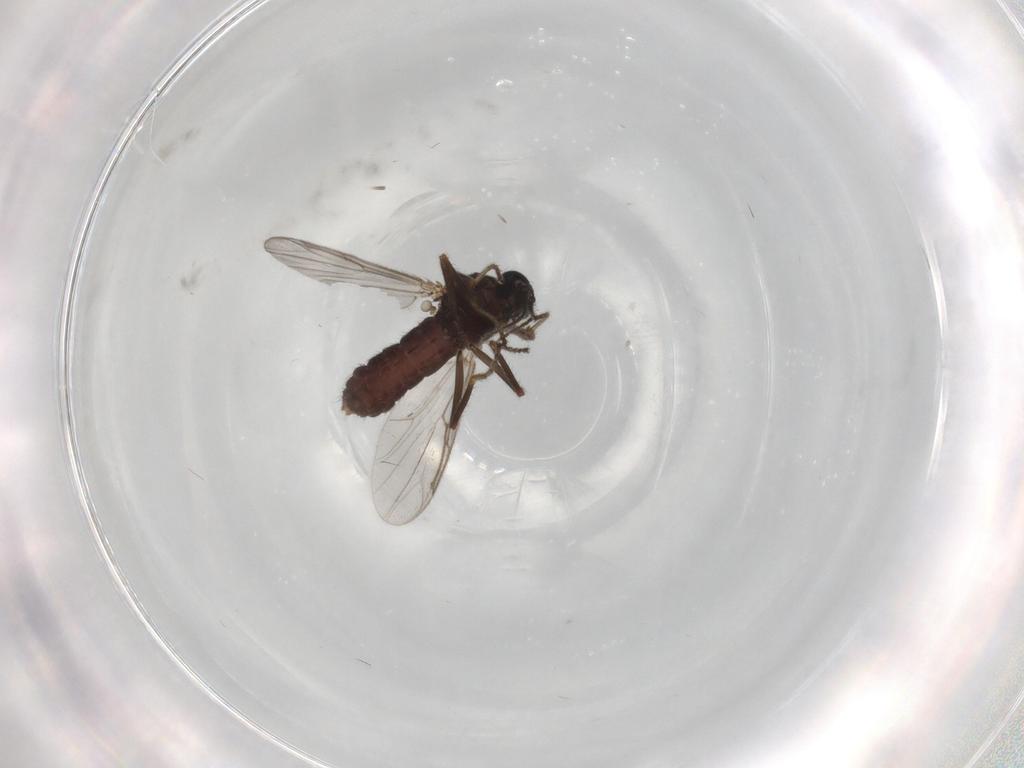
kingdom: Animalia
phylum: Arthropoda
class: Insecta
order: Diptera
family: Ceratopogonidae
